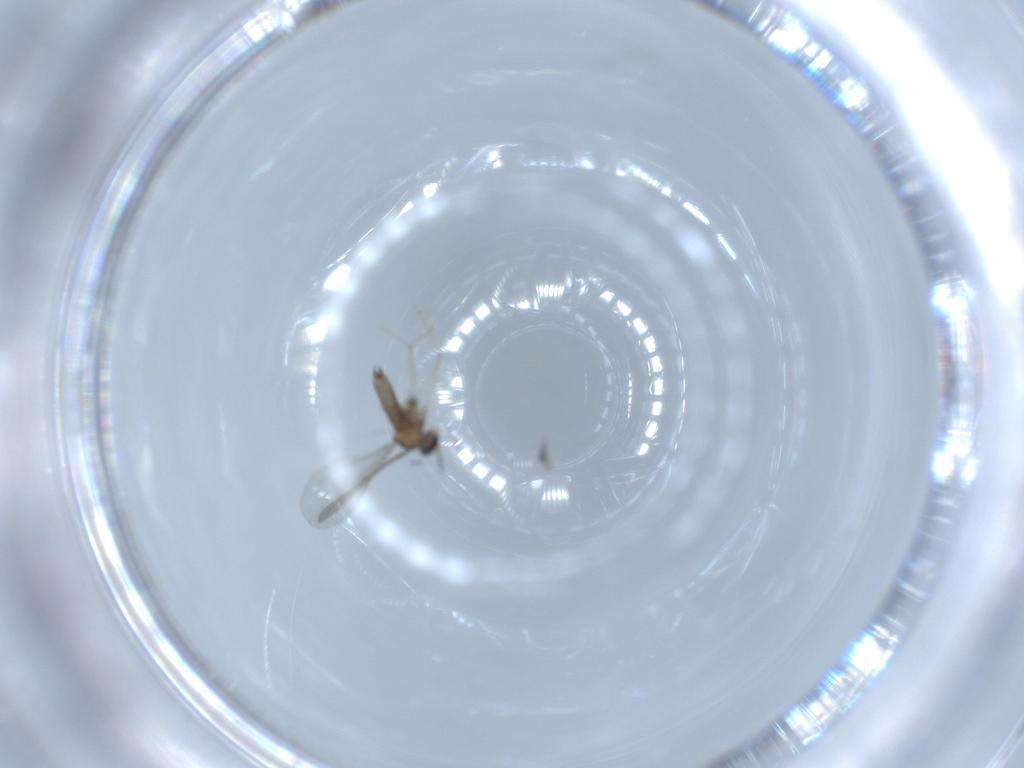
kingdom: Animalia
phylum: Arthropoda
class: Insecta
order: Diptera
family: Cecidomyiidae
